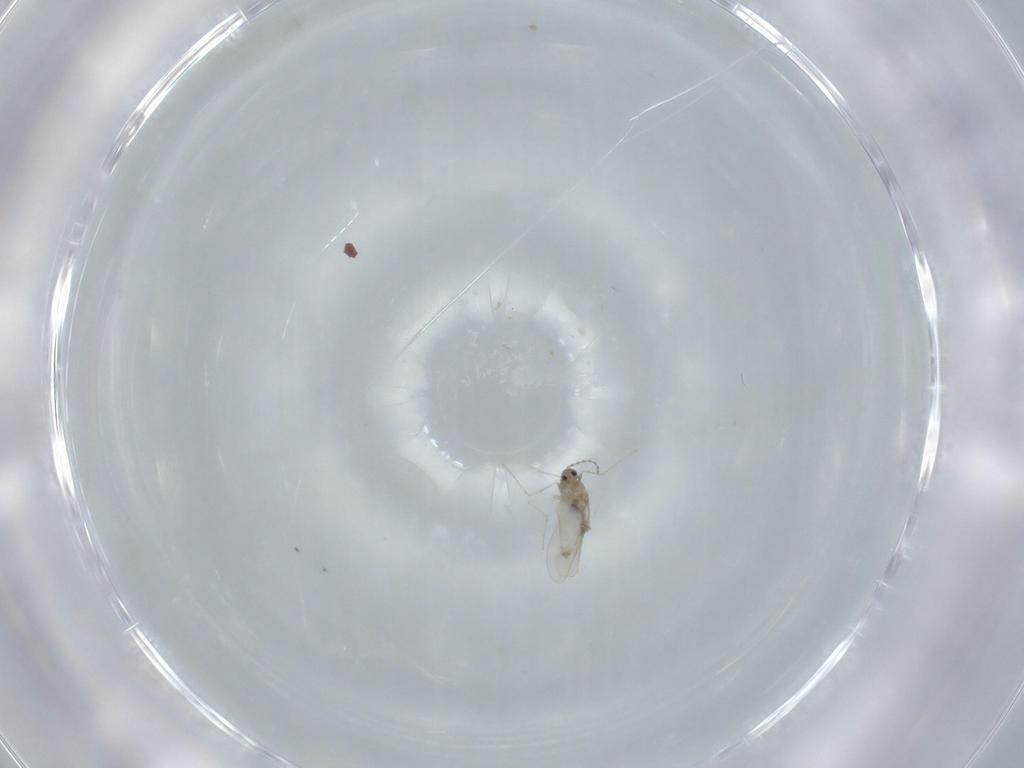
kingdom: Animalia
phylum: Arthropoda
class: Insecta
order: Diptera
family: Cecidomyiidae
